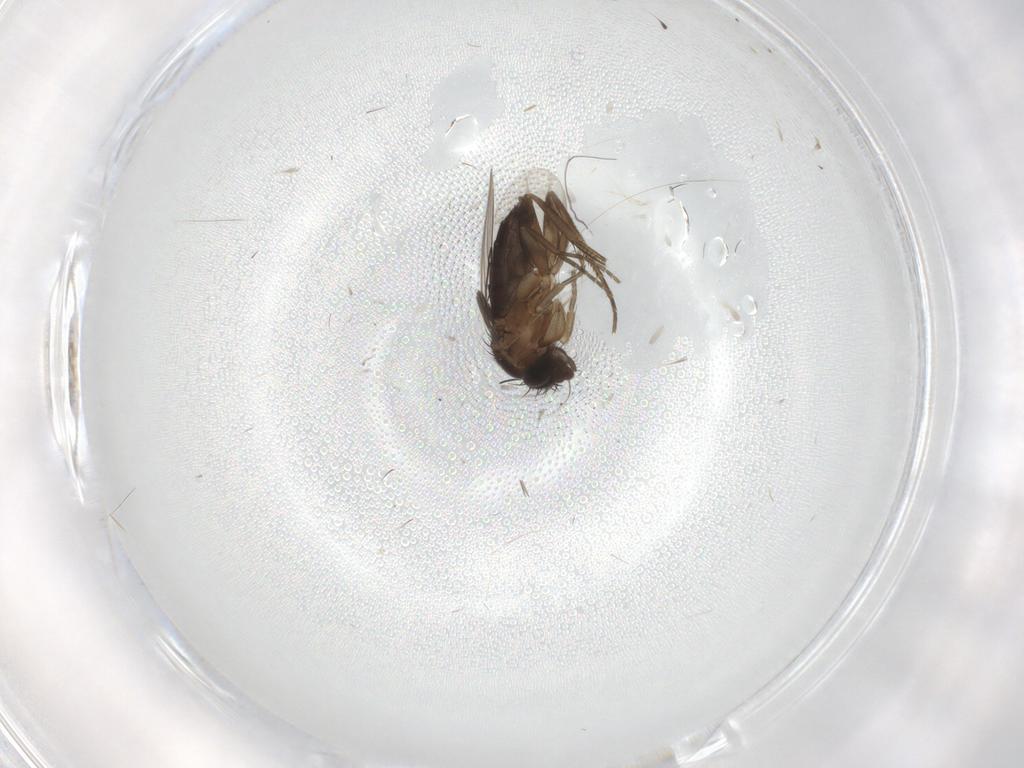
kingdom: Animalia
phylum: Arthropoda
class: Insecta
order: Diptera
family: Phoridae
